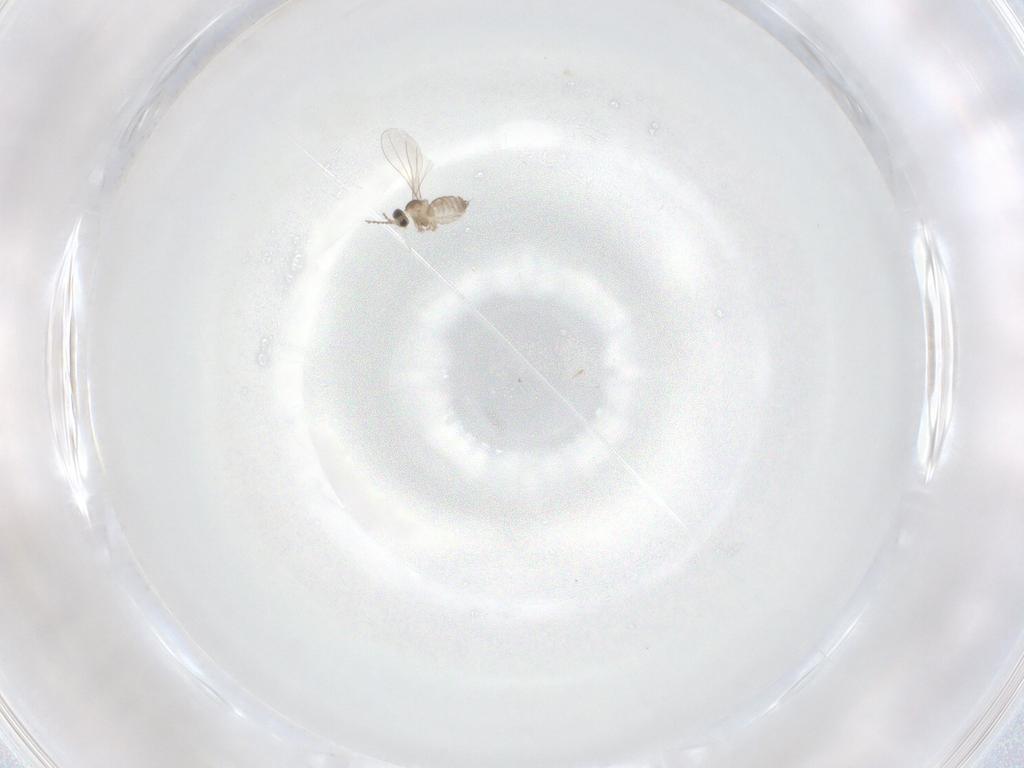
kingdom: Animalia
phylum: Arthropoda
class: Insecta
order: Diptera
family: Cecidomyiidae
